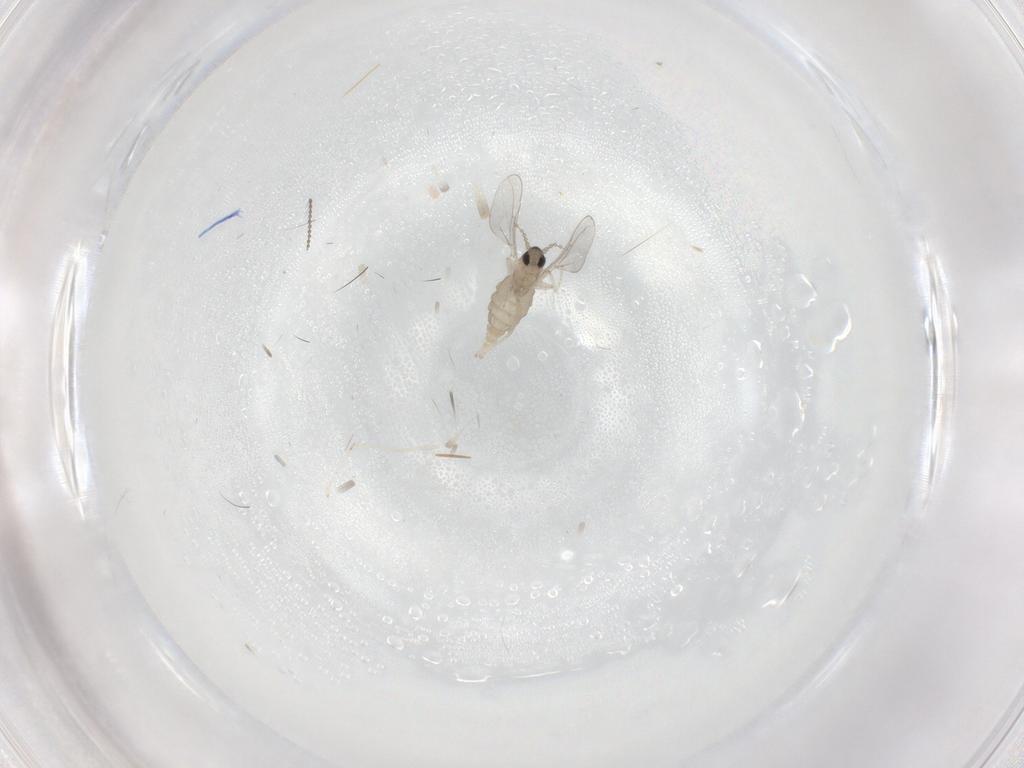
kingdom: Animalia
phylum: Arthropoda
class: Insecta
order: Diptera
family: Cecidomyiidae
